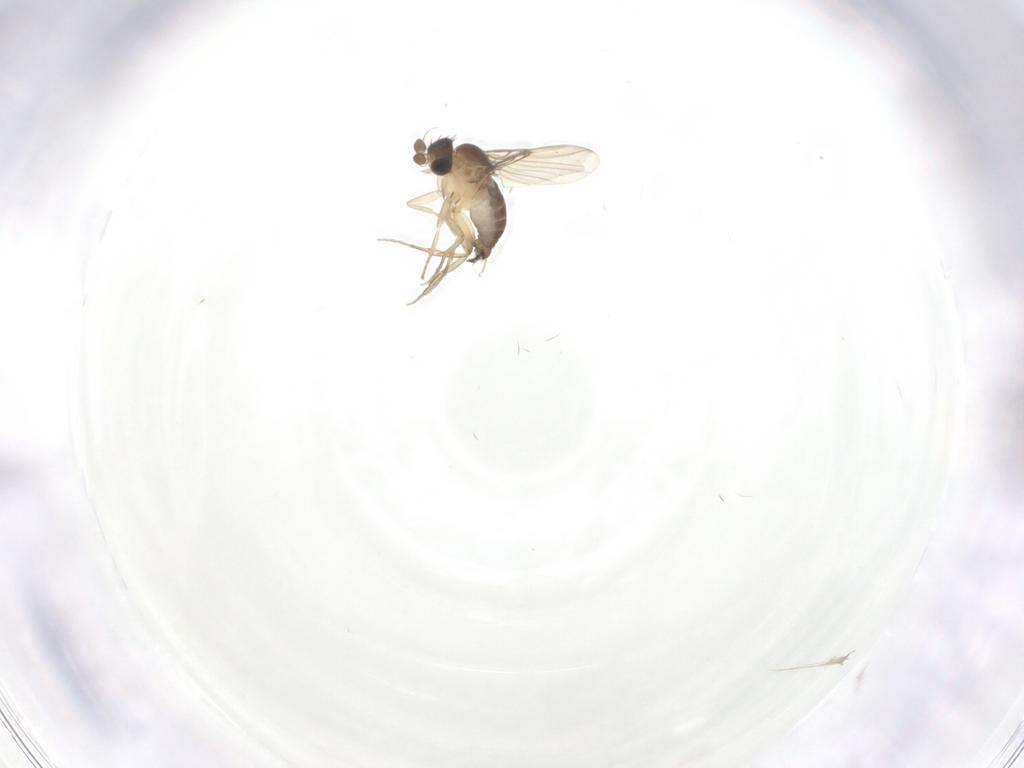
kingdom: Animalia
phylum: Arthropoda
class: Insecta
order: Diptera
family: Phoridae
